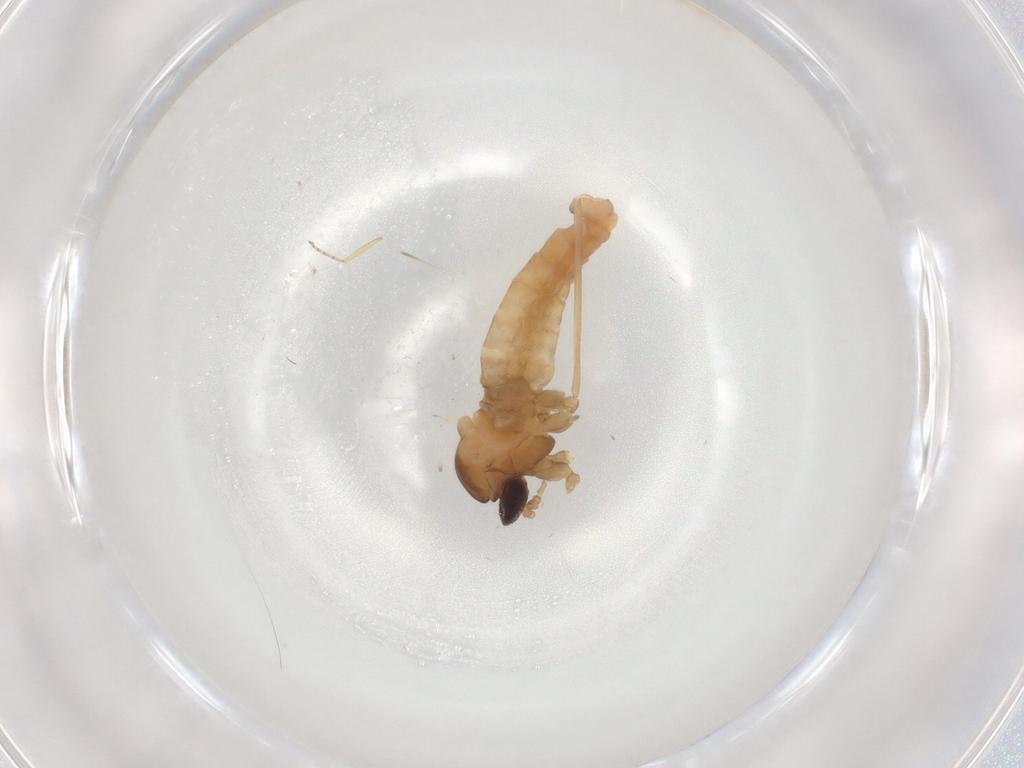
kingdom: Animalia
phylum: Arthropoda
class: Insecta
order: Diptera
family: Cecidomyiidae
